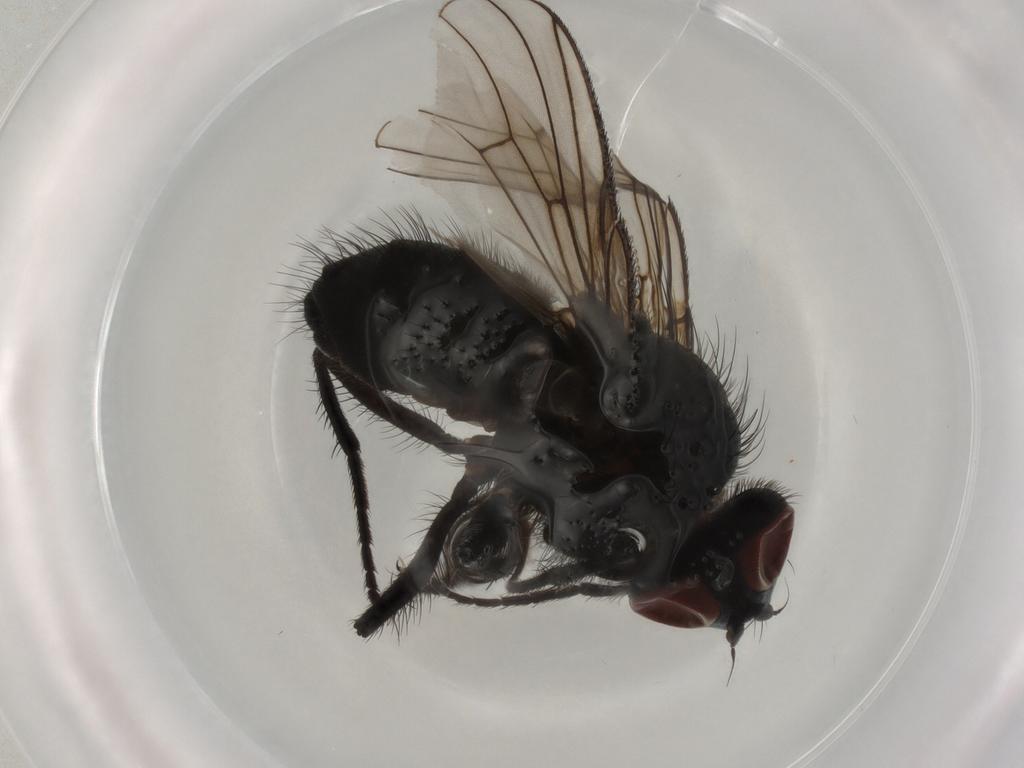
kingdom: Animalia
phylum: Arthropoda
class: Insecta
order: Diptera
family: Muscidae
